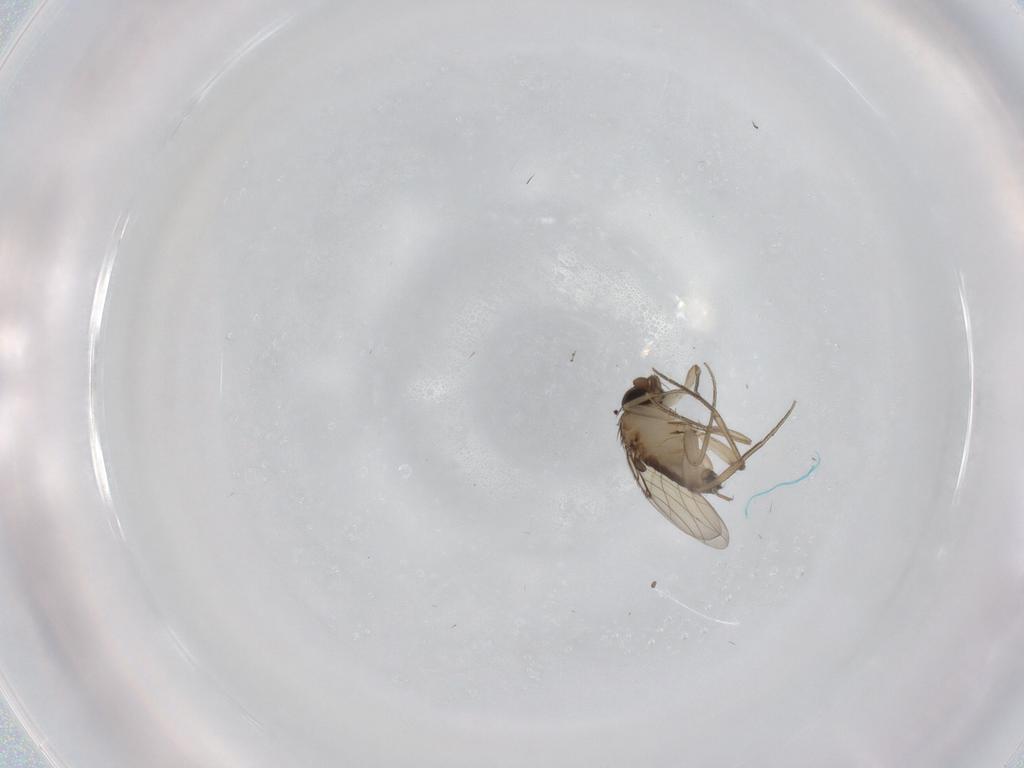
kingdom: Animalia
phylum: Arthropoda
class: Insecta
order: Diptera
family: Phoridae
